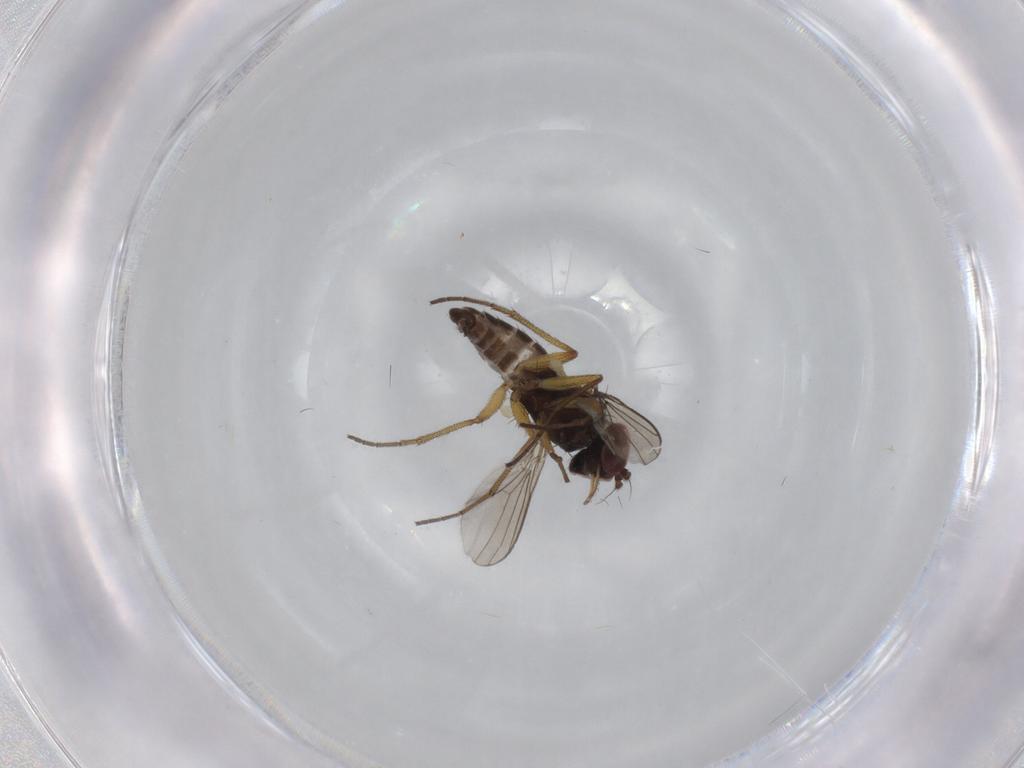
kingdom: Animalia
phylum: Arthropoda
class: Insecta
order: Diptera
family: Dolichopodidae
